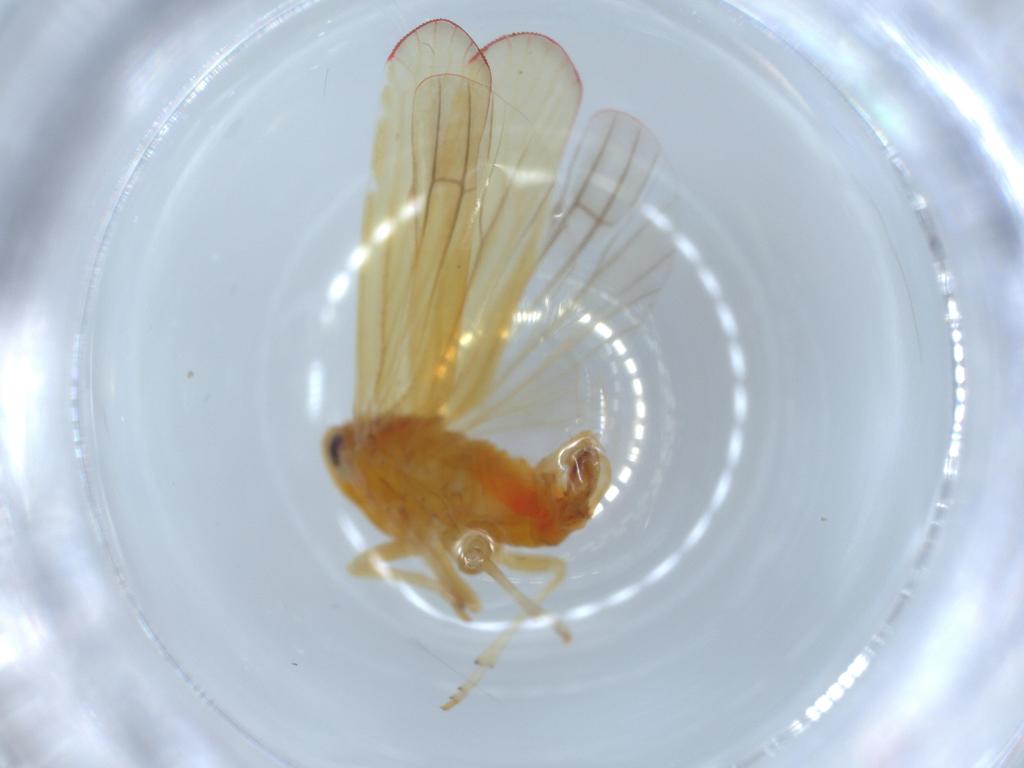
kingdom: Animalia
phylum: Arthropoda
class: Insecta
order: Hemiptera
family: Derbidae
